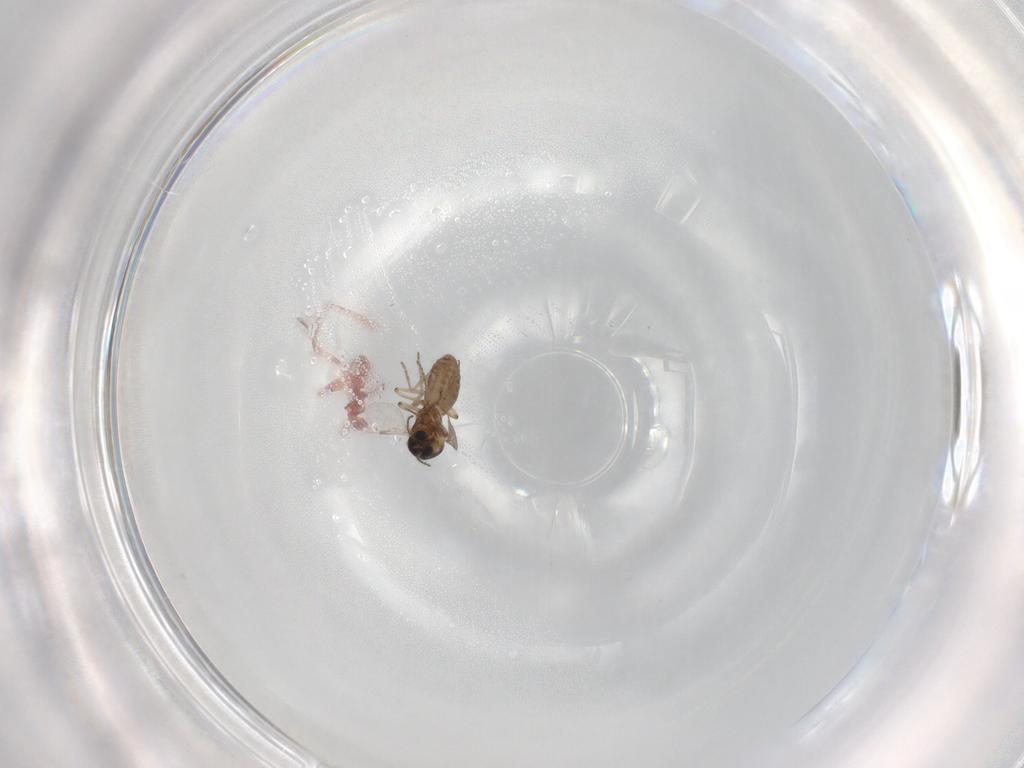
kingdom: Animalia
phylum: Arthropoda
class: Insecta
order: Diptera
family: Ceratopogonidae
